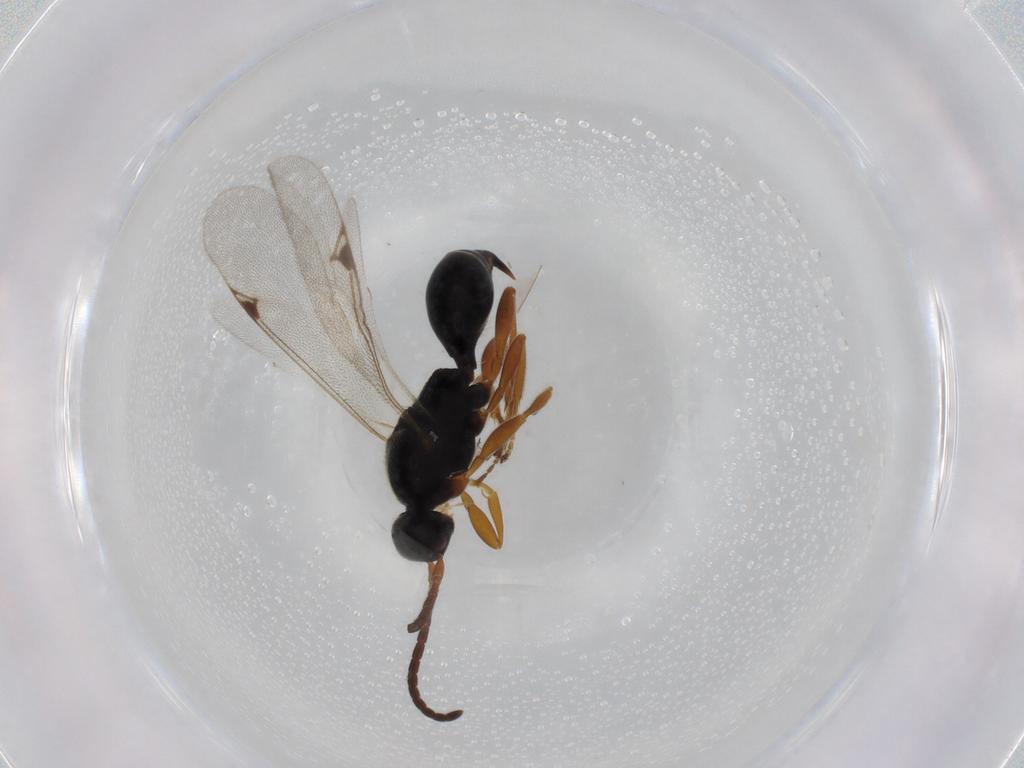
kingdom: Animalia
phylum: Arthropoda
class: Insecta
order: Hymenoptera
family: Proctotrupidae
